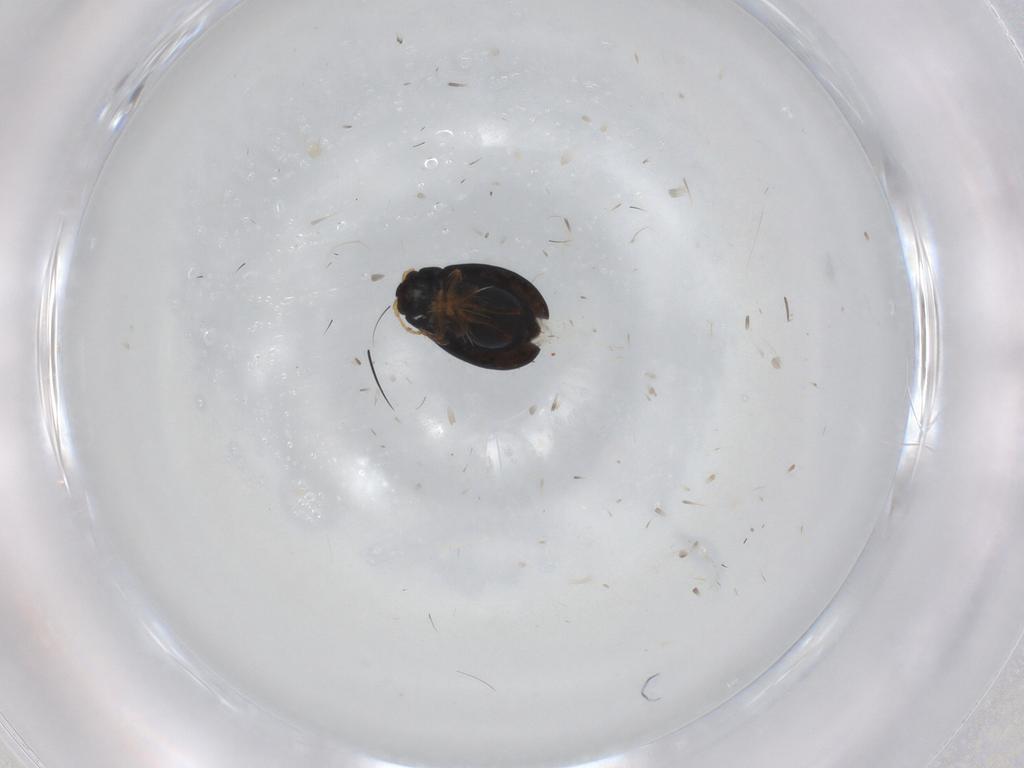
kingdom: Animalia
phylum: Arthropoda
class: Insecta
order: Coleoptera
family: Chrysomelidae
